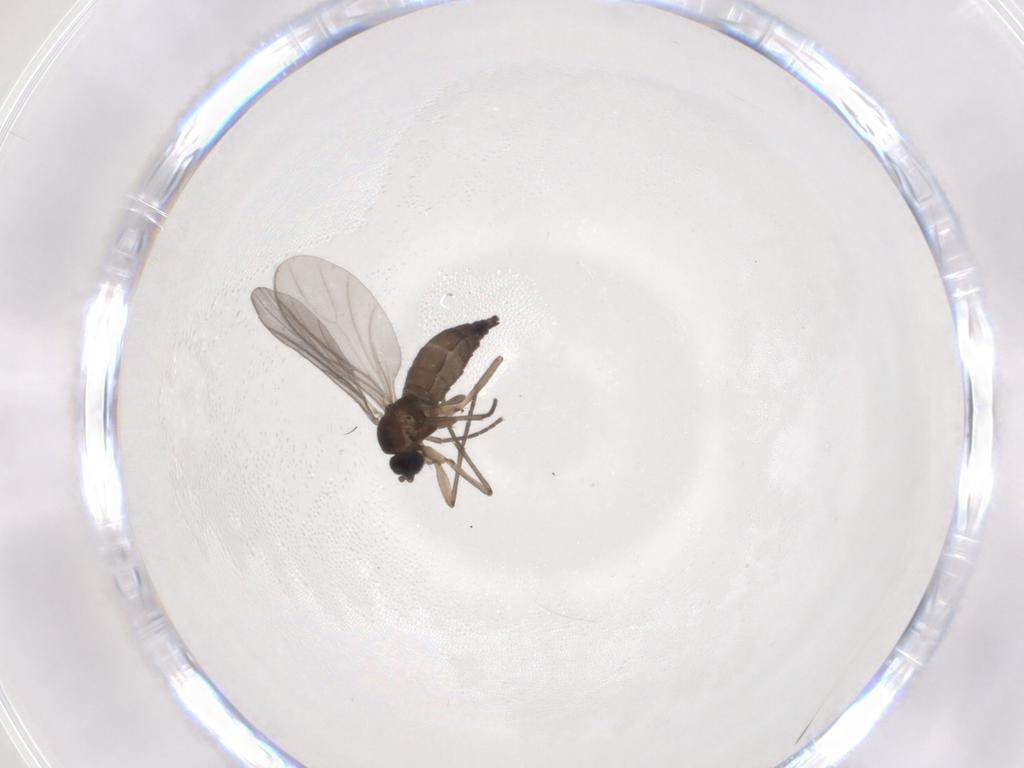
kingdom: Animalia
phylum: Arthropoda
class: Insecta
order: Diptera
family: Sciaridae
